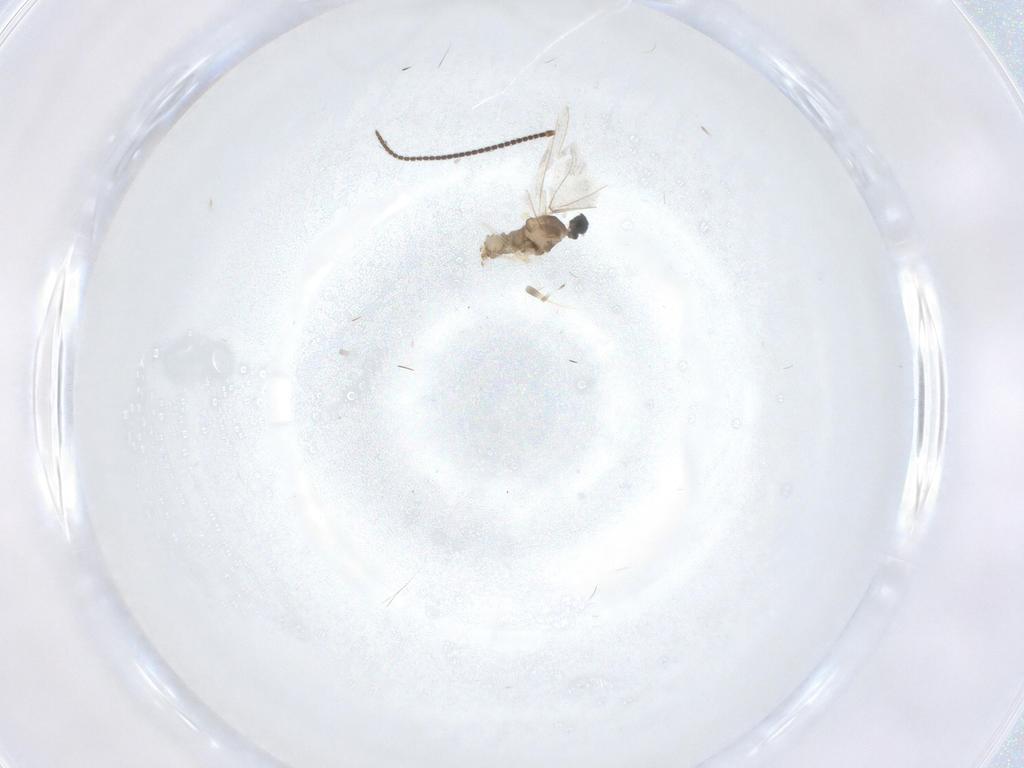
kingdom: Animalia
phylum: Arthropoda
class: Insecta
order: Diptera
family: Cecidomyiidae
